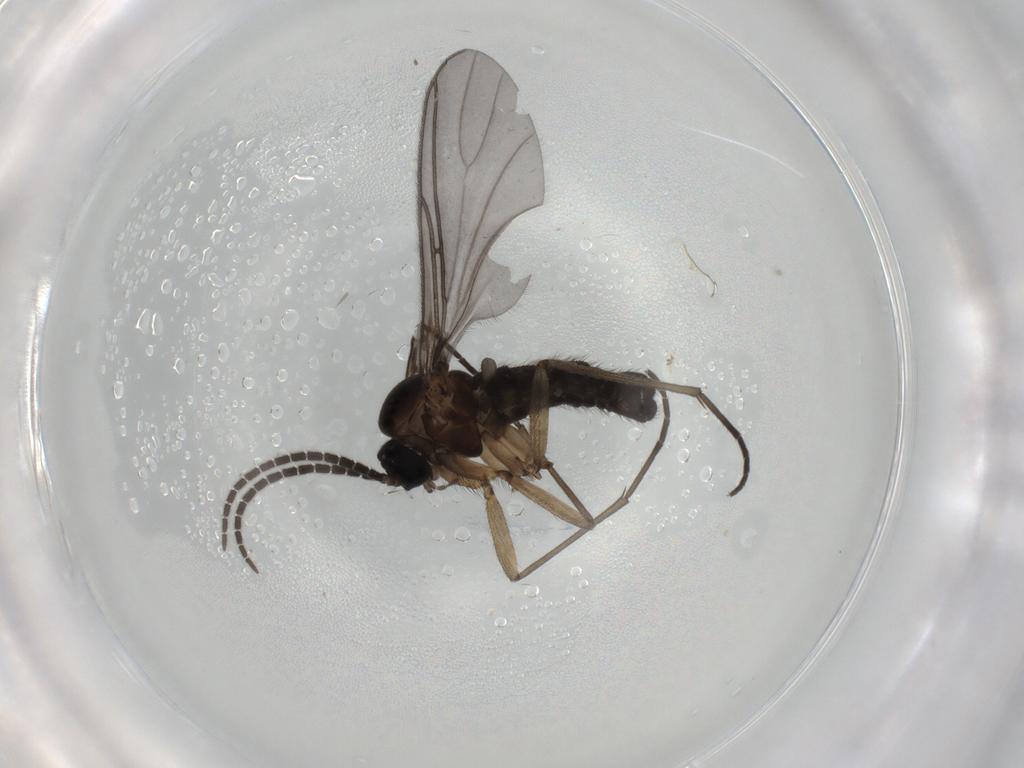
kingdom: Animalia
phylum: Arthropoda
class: Insecta
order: Diptera
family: Sciaridae
